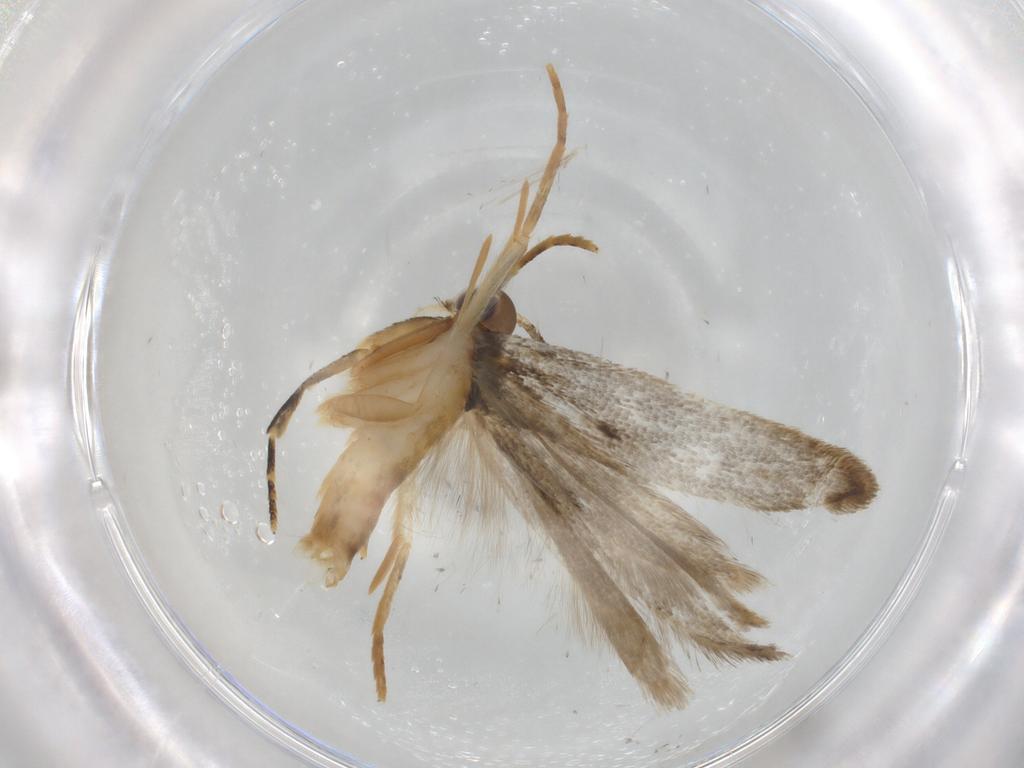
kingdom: Animalia
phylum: Arthropoda
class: Insecta
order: Lepidoptera
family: Autostichidae
